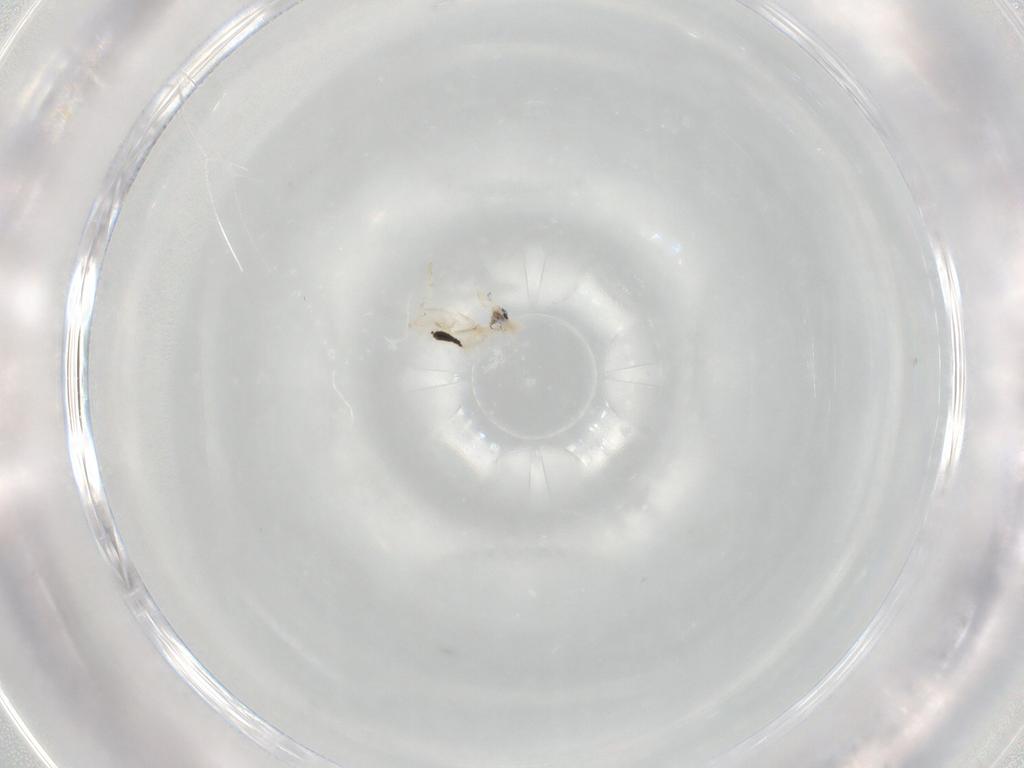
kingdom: Animalia
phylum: Arthropoda
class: Collembola
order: Entomobryomorpha
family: Entomobryidae
